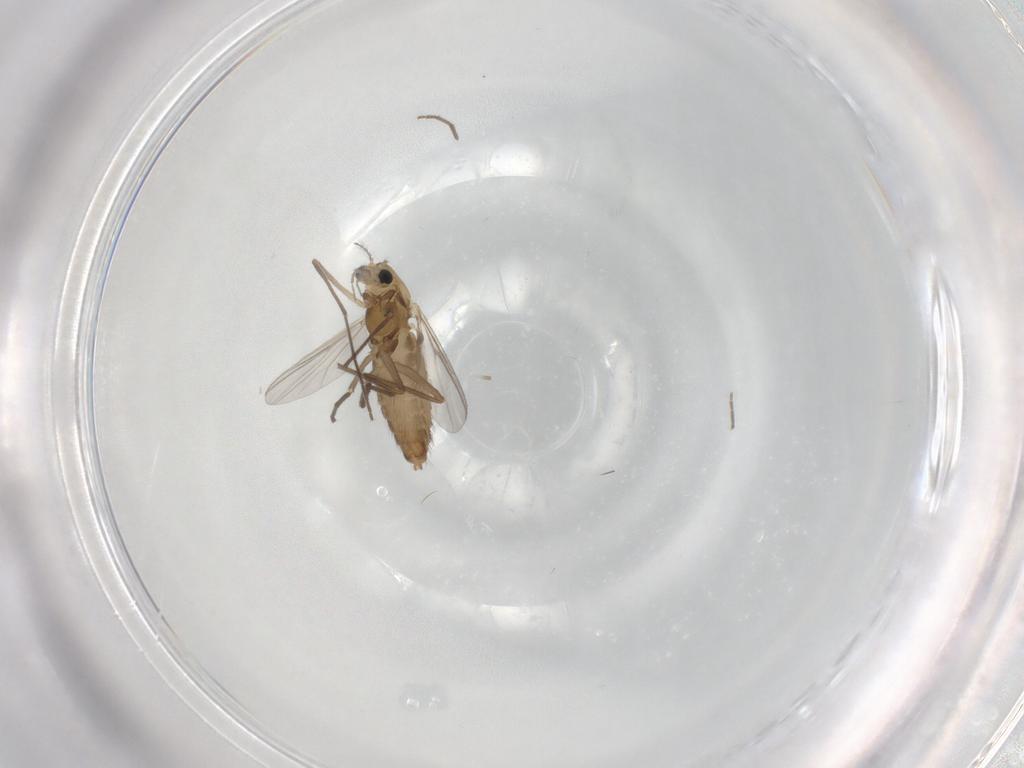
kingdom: Animalia
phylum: Arthropoda
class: Insecta
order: Diptera
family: Chironomidae
